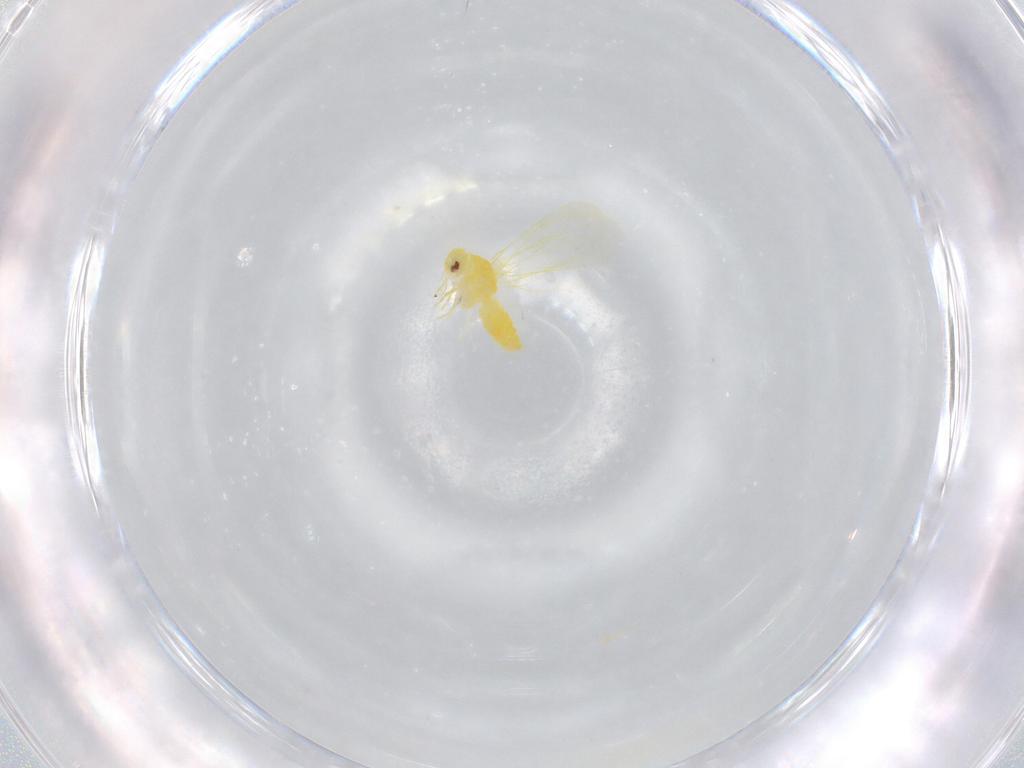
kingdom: Animalia
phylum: Arthropoda
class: Insecta
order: Hemiptera
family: Aleyrodidae
